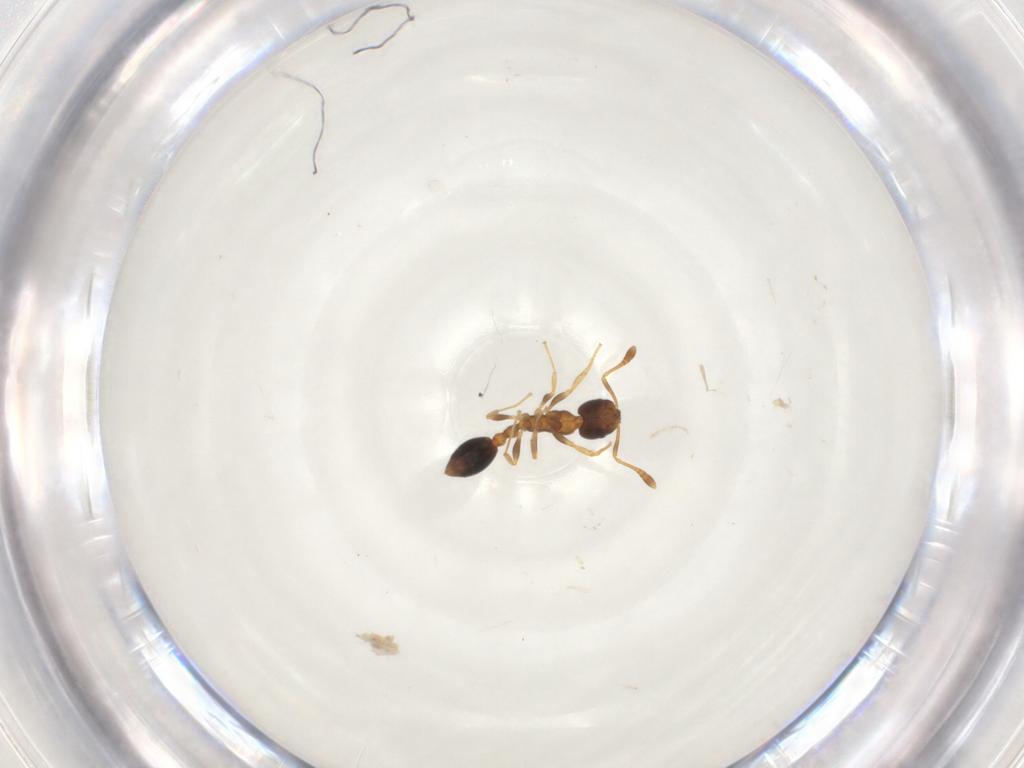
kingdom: Animalia
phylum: Arthropoda
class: Insecta
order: Hymenoptera
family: Formicidae
